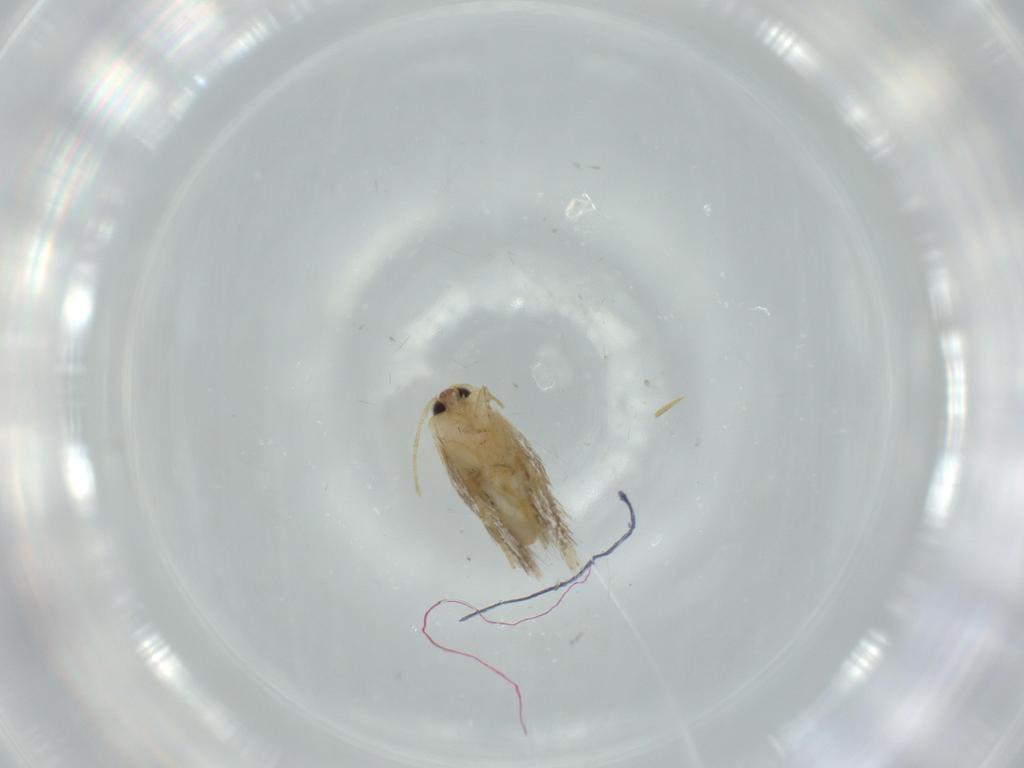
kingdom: Animalia
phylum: Arthropoda
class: Insecta
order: Lepidoptera
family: Nepticulidae
